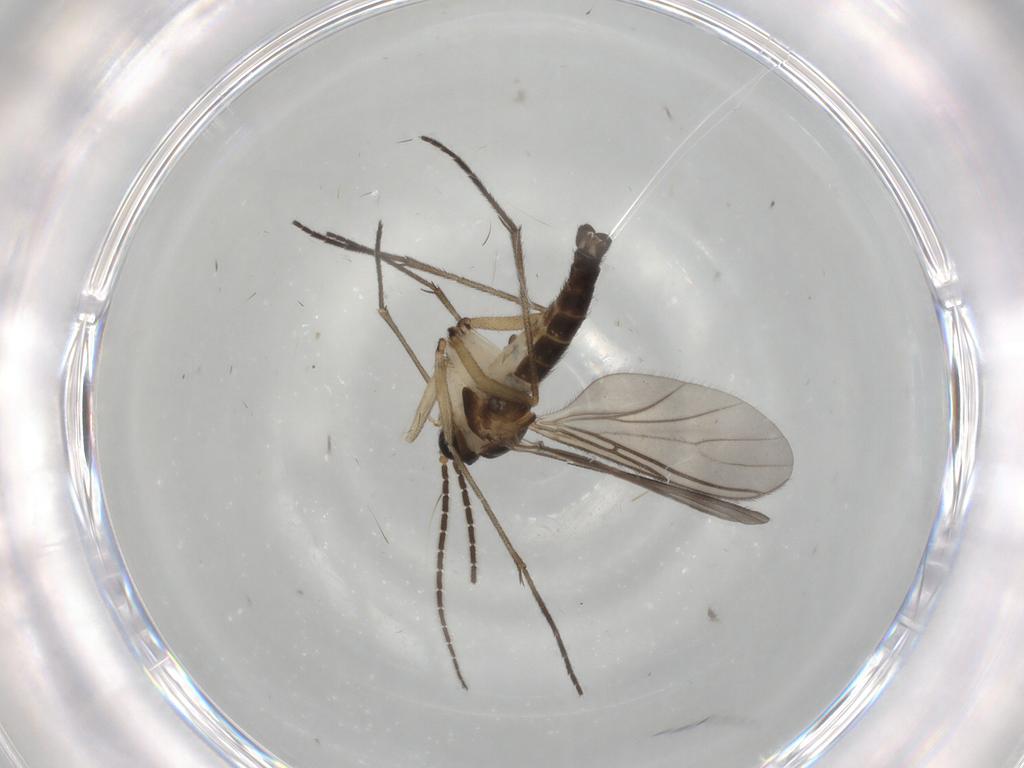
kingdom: Animalia
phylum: Arthropoda
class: Insecta
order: Diptera
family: Sciaridae
